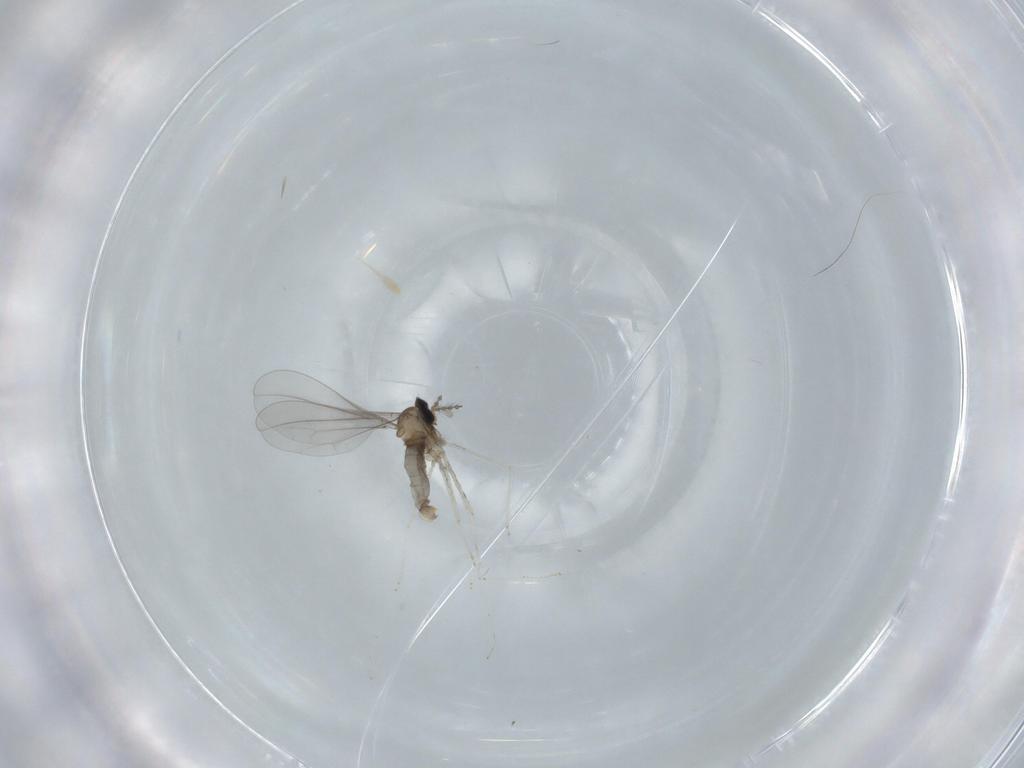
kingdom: Animalia
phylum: Arthropoda
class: Insecta
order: Diptera
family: Cecidomyiidae
